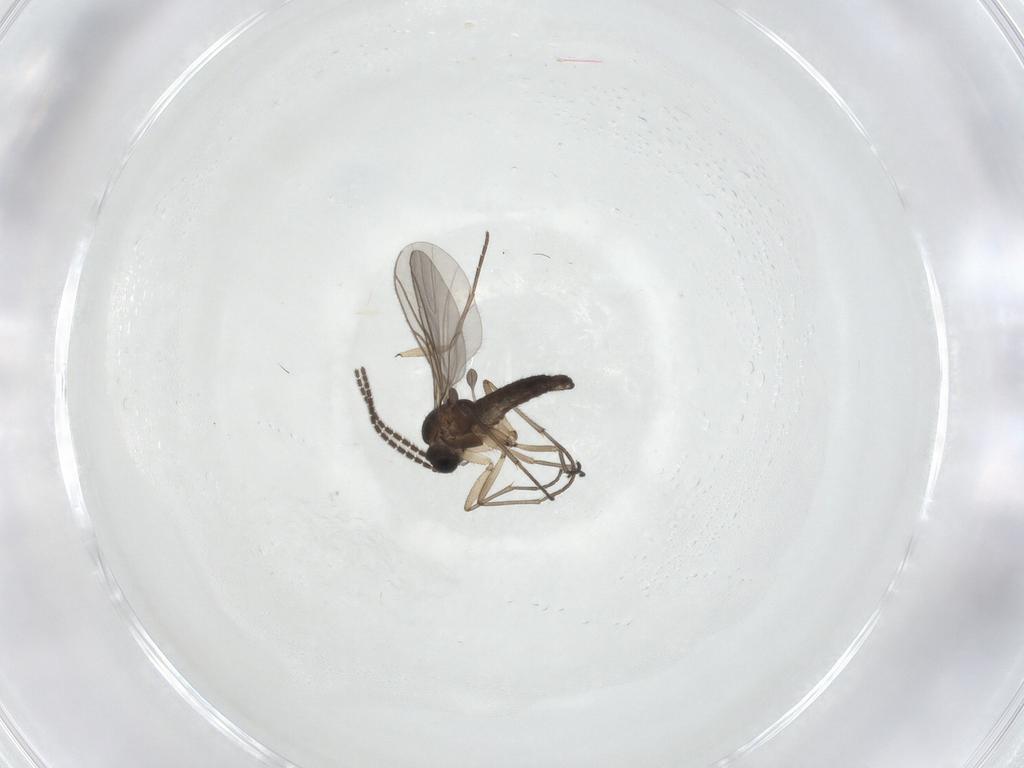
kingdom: Animalia
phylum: Arthropoda
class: Insecta
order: Diptera
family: Sciaridae
